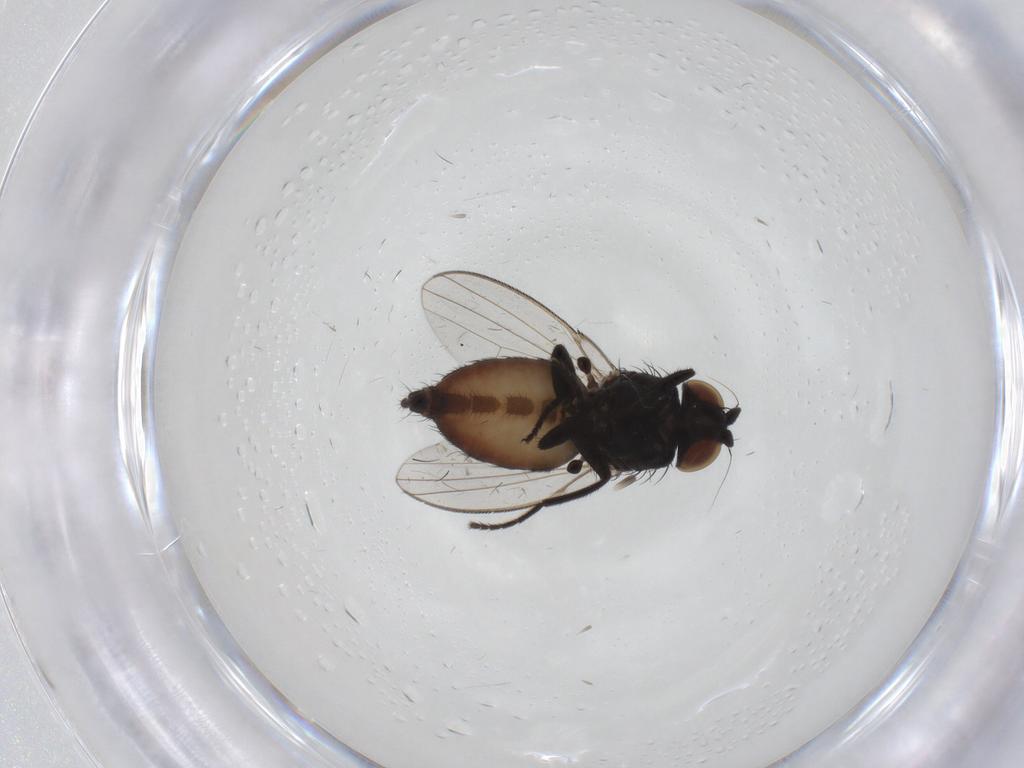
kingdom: Animalia
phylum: Arthropoda
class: Insecta
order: Diptera
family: Milichiidae
